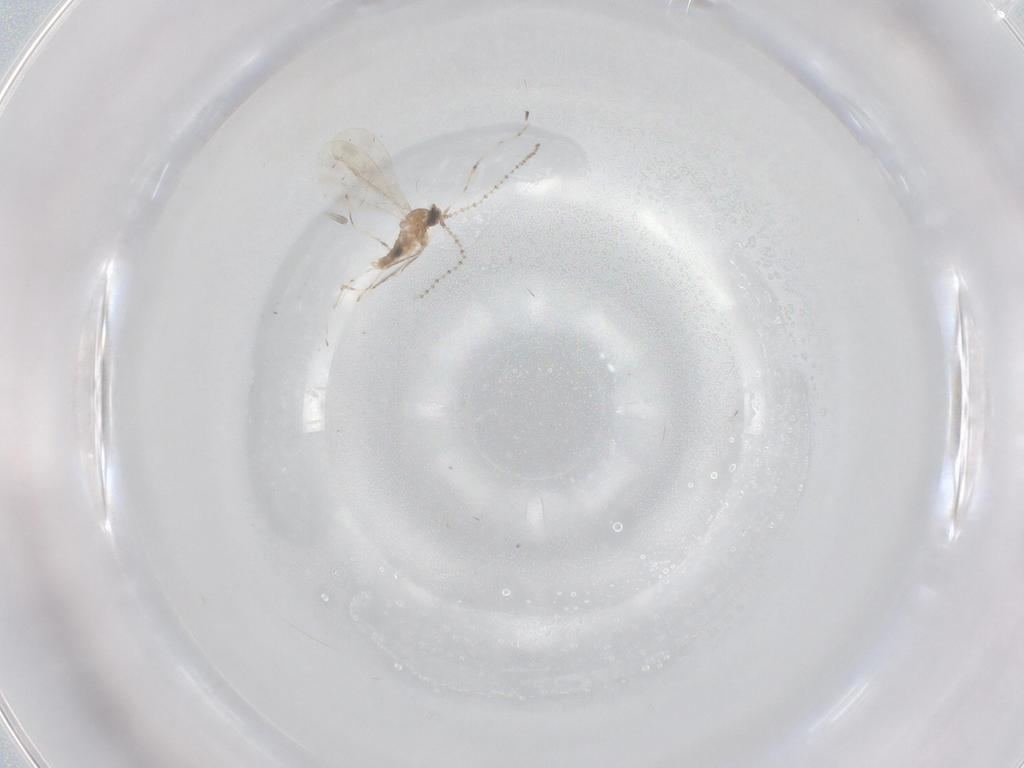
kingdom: Animalia
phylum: Arthropoda
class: Insecta
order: Diptera
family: Chironomidae
